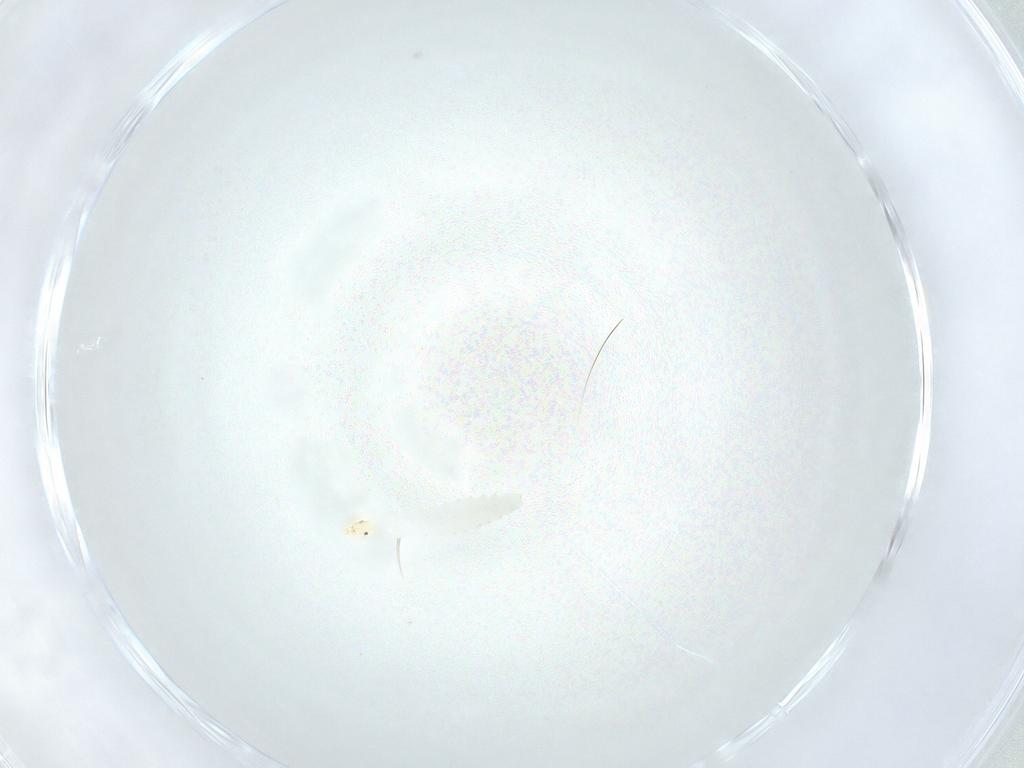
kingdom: Animalia
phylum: Arthropoda
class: Insecta
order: Diptera
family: Stratiomyidae
